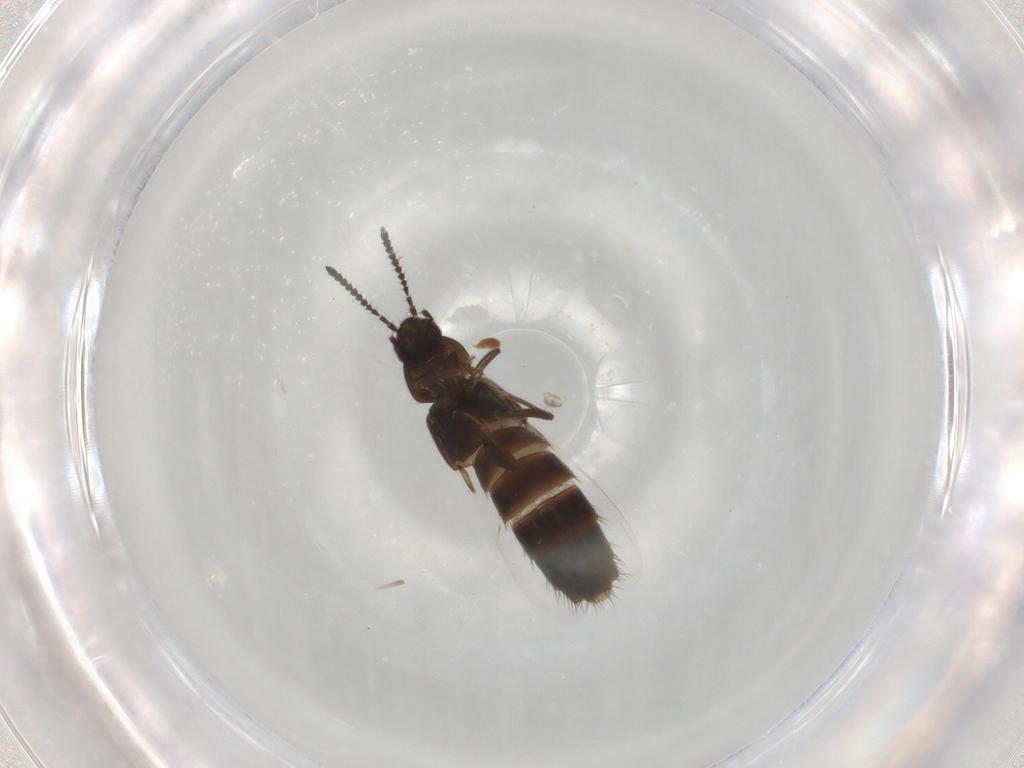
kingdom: Animalia
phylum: Arthropoda
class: Insecta
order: Coleoptera
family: Staphylinidae
